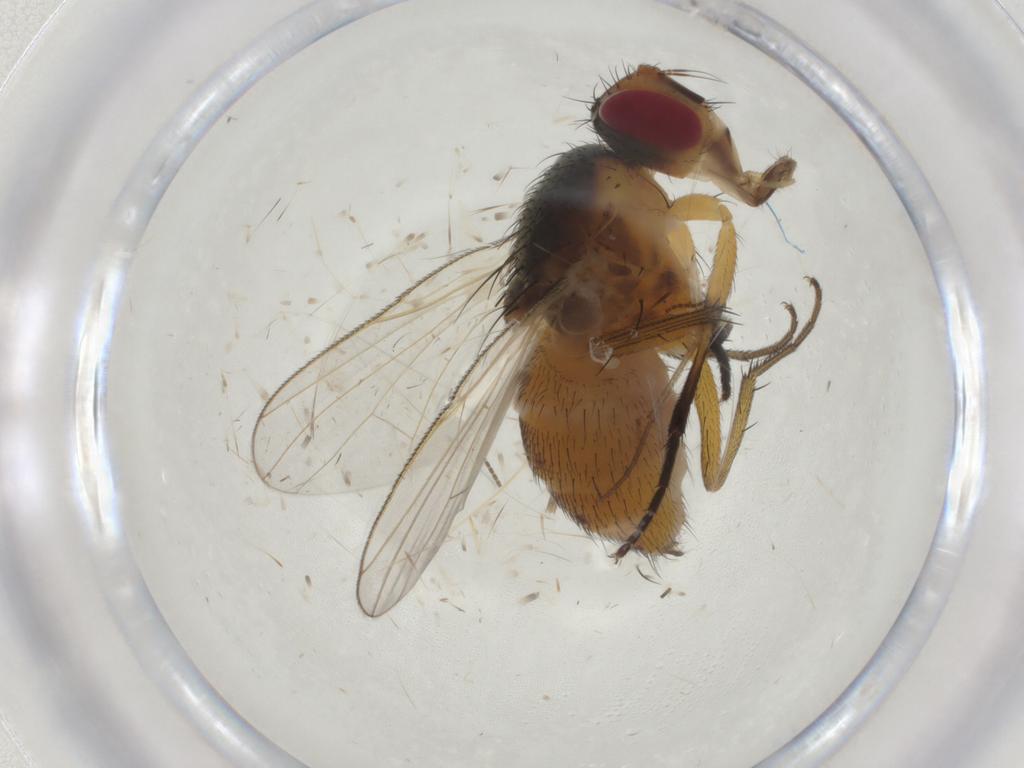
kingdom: Animalia
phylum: Arthropoda
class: Insecta
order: Diptera
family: Muscidae
